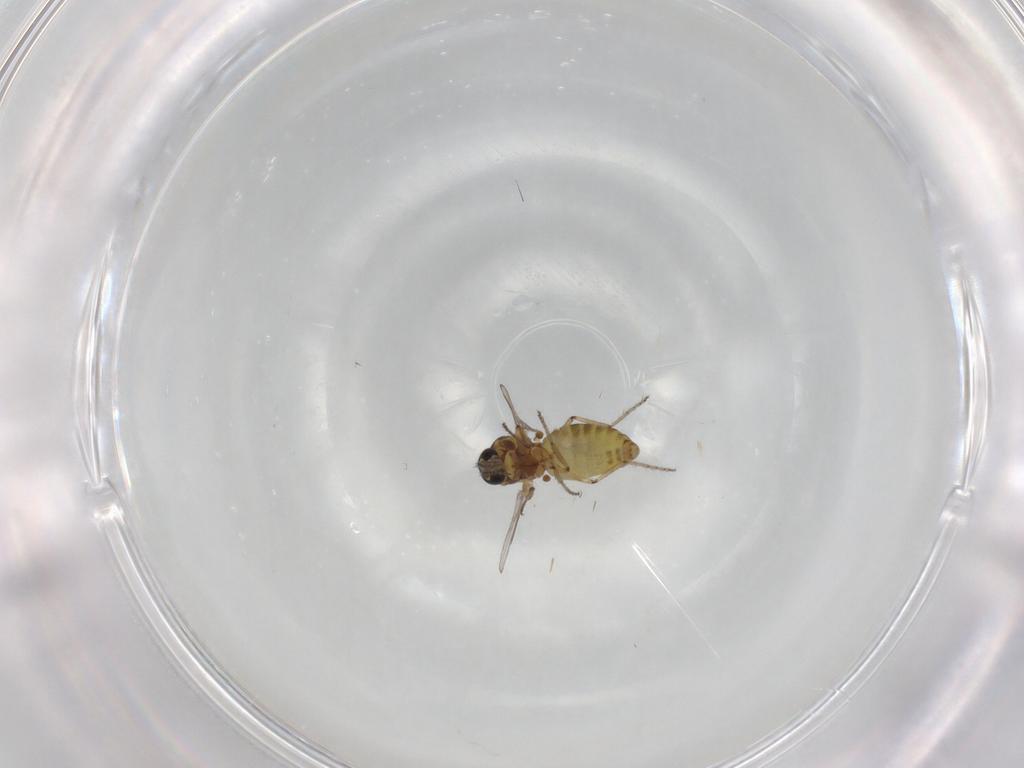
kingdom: Animalia
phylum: Arthropoda
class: Insecta
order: Diptera
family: Ceratopogonidae
